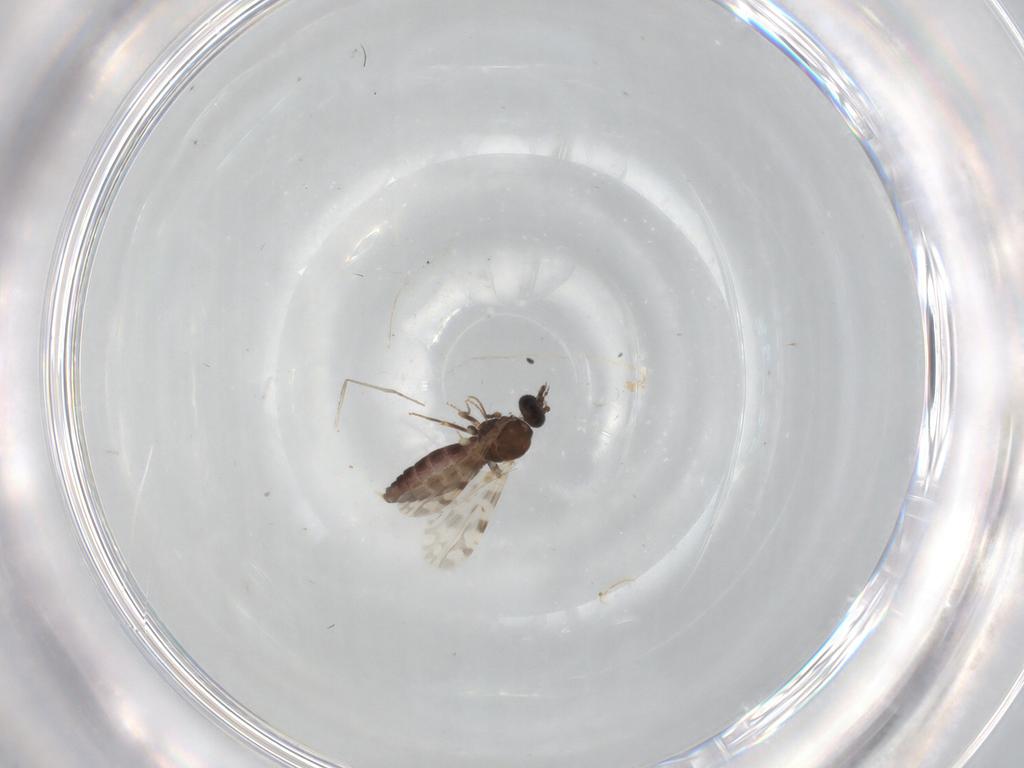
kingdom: Animalia
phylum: Arthropoda
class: Insecta
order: Diptera
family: Ceratopogonidae
